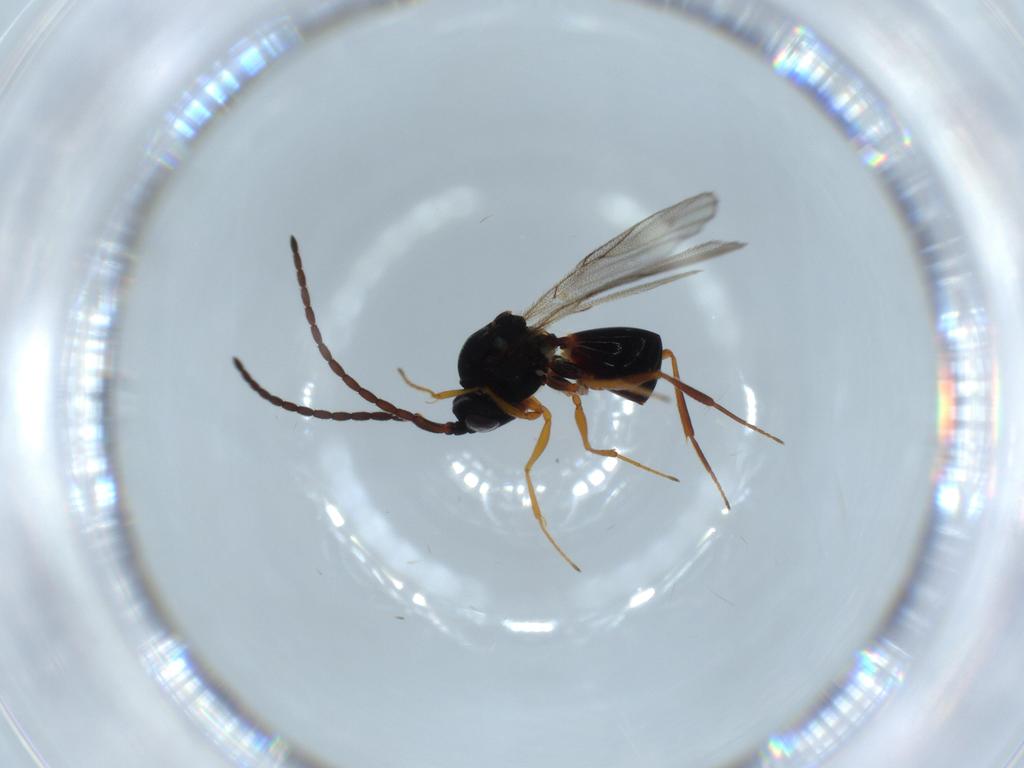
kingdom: Animalia
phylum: Arthropoda
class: Insecta
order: Hymenoptera
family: Figitidae
